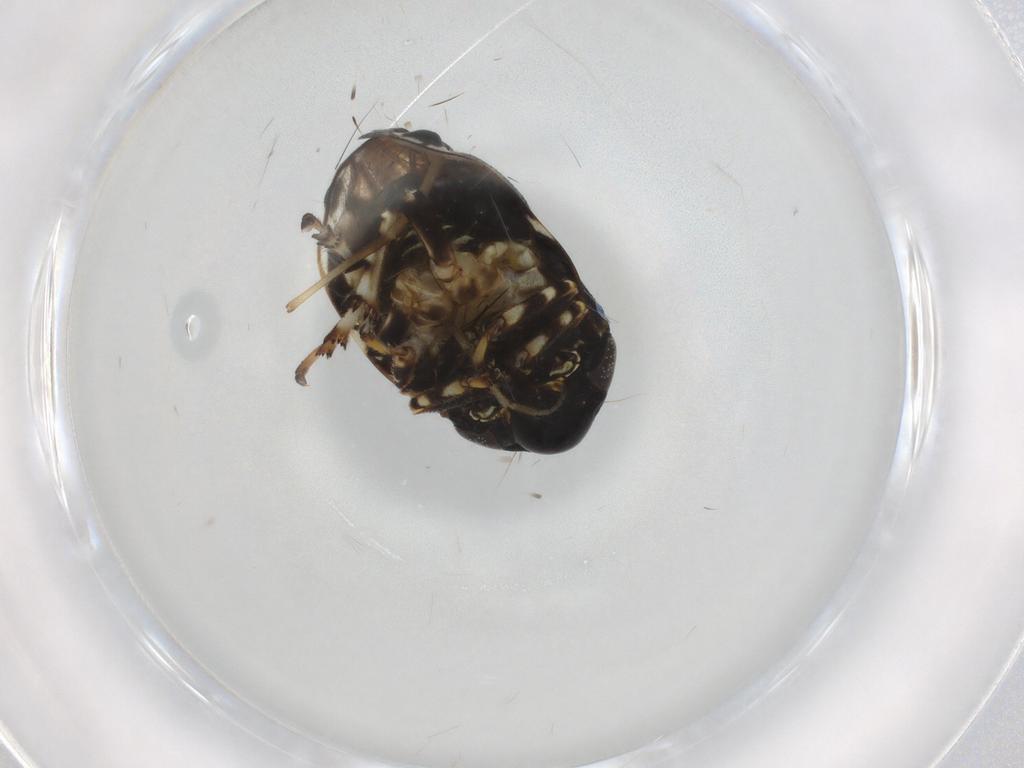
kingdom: Animalia
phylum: Arthropoda
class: Insecta
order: Hemiptera
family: Clastopteridae
